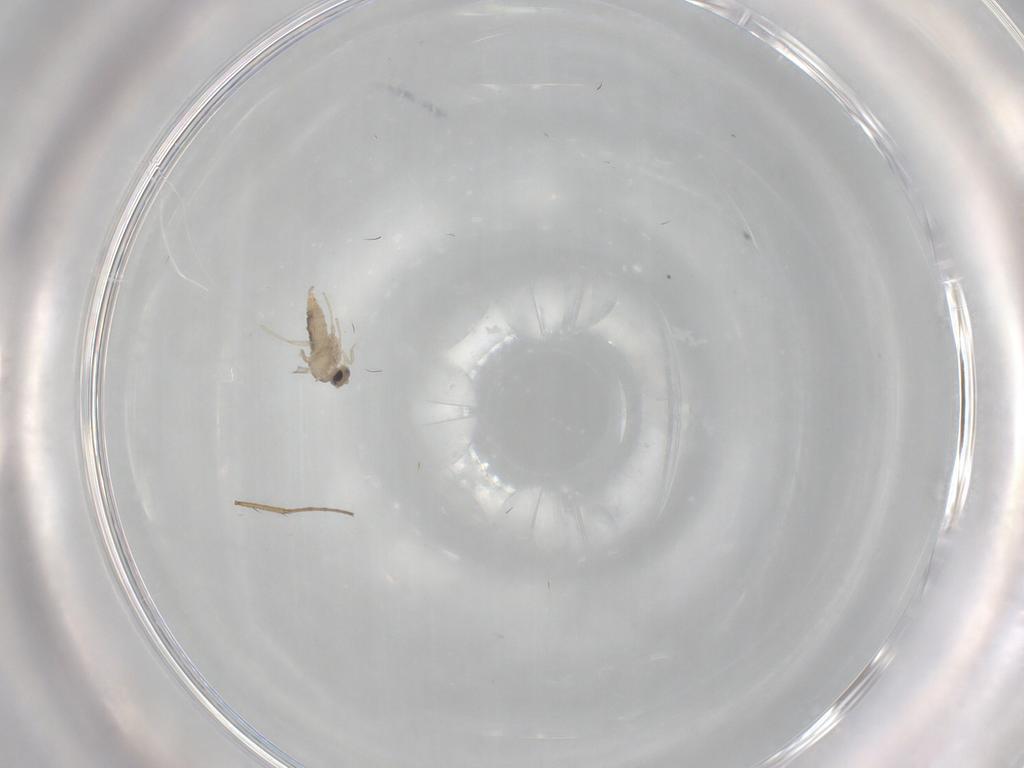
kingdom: Animalia
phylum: Arthropoda
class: Insecta
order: Diptera
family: Cecidomyiidae
